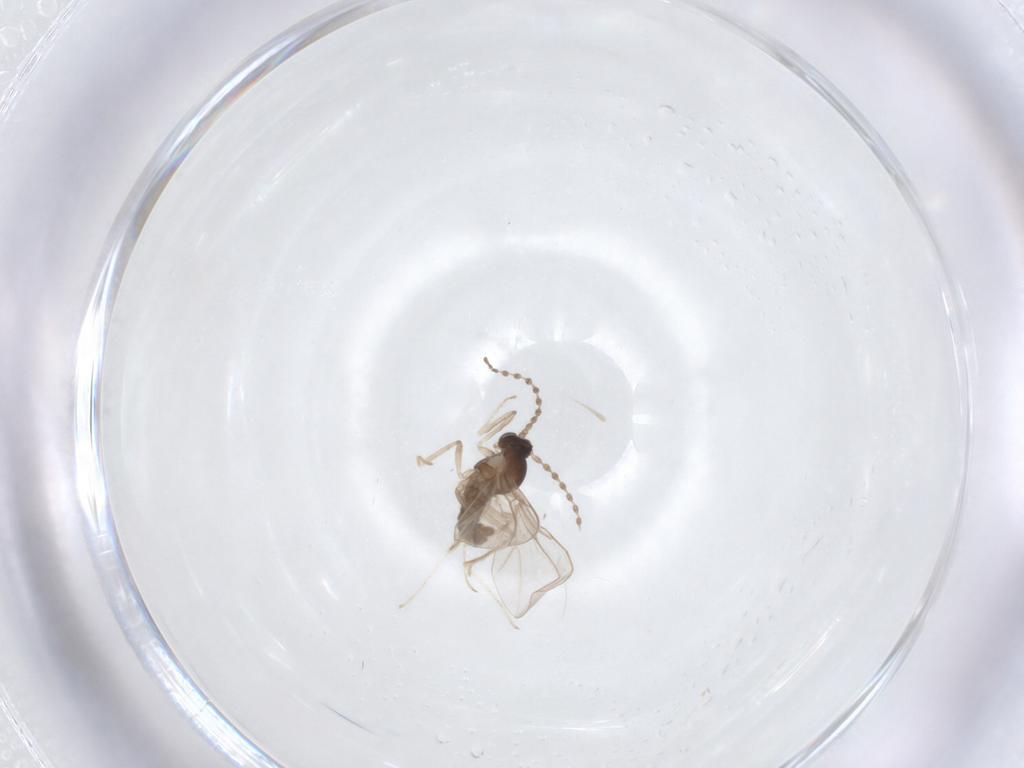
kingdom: Animalia
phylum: Arthropoda
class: Insecta
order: Diptera
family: Cecidomyiidae
